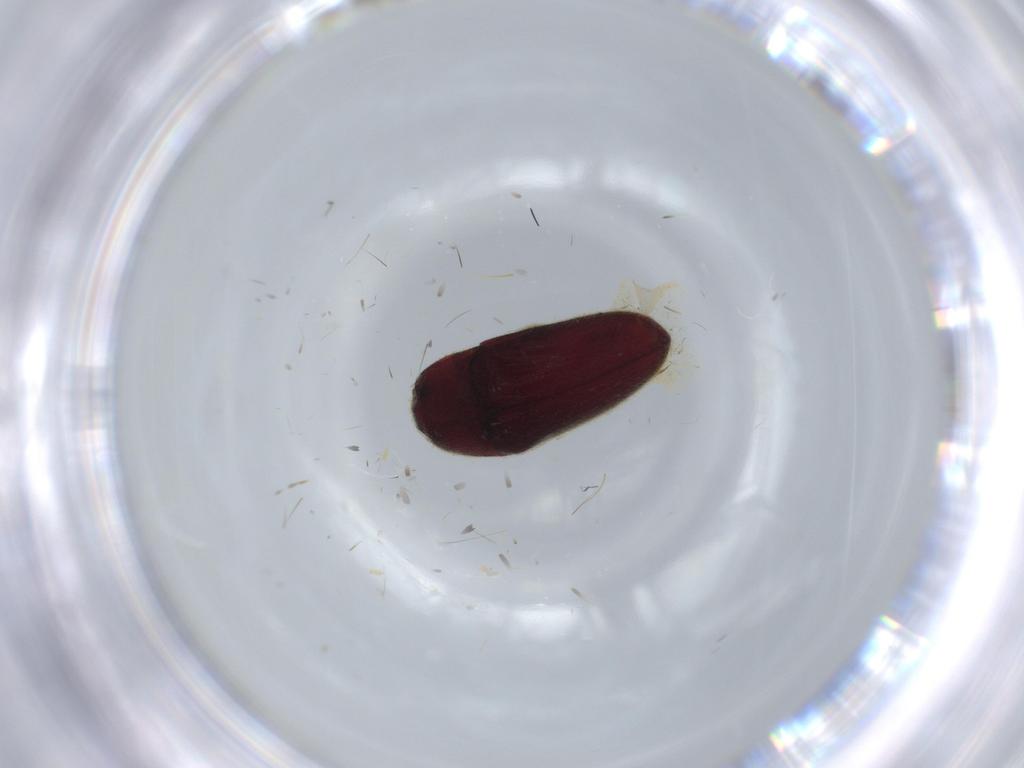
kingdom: Animalia
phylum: Arthropoda
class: Insecta
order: Coleoptera
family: Throscidae
